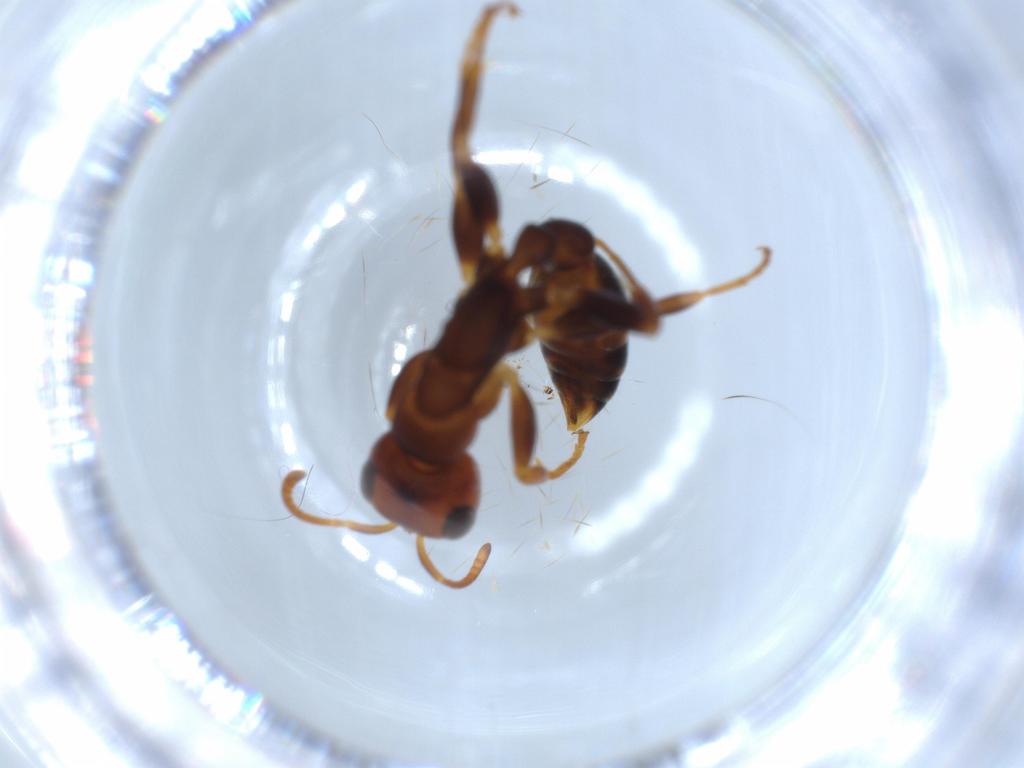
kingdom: Animalia
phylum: Arthropoda
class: Insecta
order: Hymenoptera
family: Formicidae
